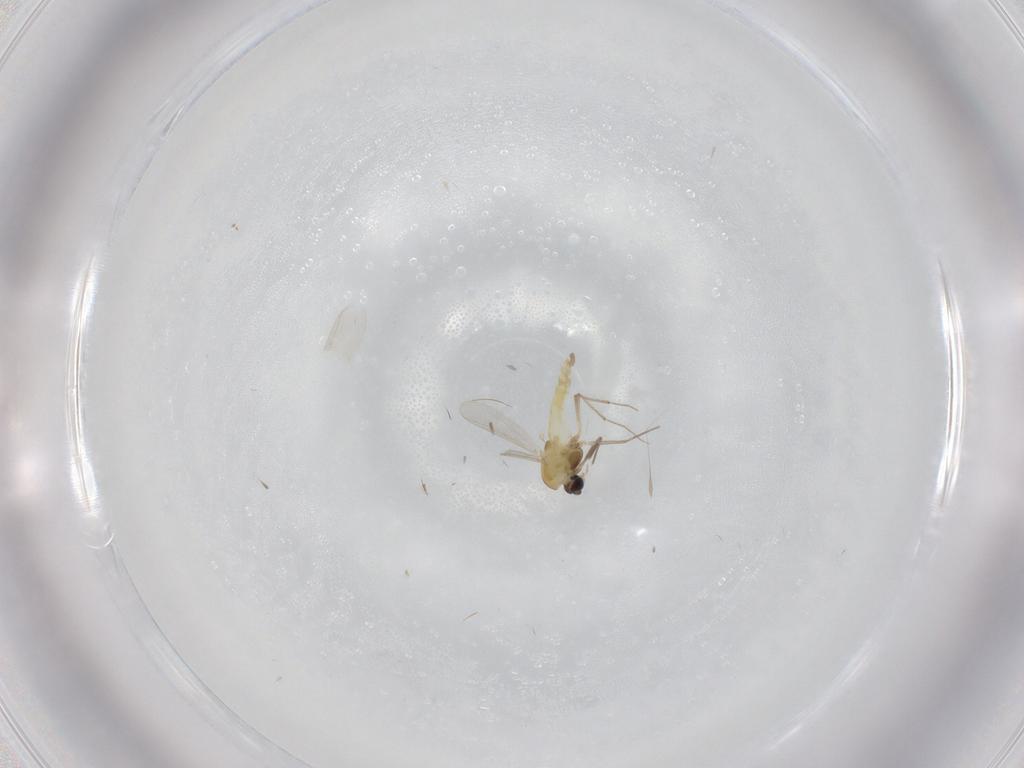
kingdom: Animalia
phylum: Arthropoda
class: Insecta
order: Diptera
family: Chironomidae
